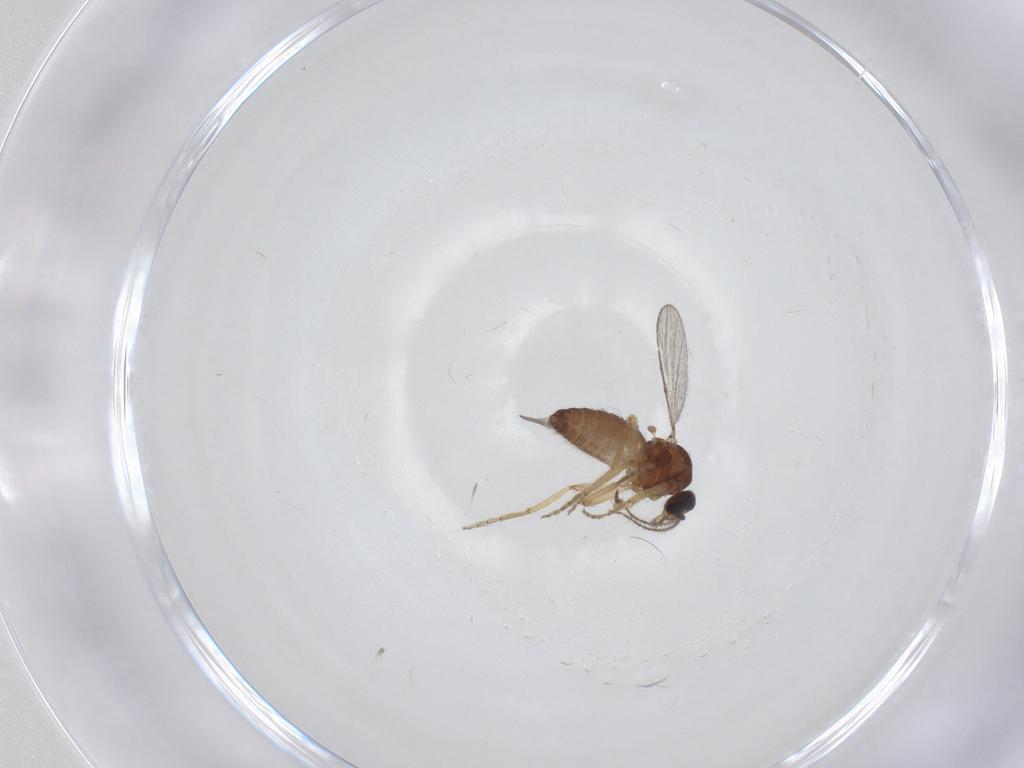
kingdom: Animalia
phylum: Arthropoda
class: Insecta
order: Diptera
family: Ceratopogonidae
